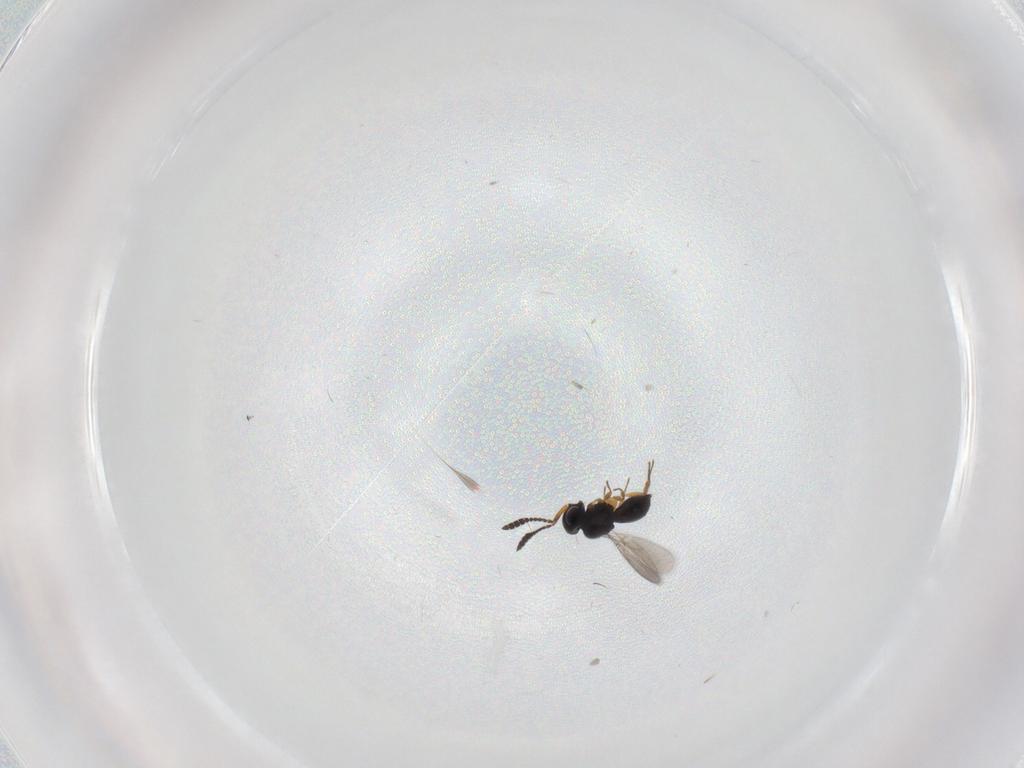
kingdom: Animalia
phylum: Arthropoda
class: Insecta
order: Hymenoptera
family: Scelionidae
